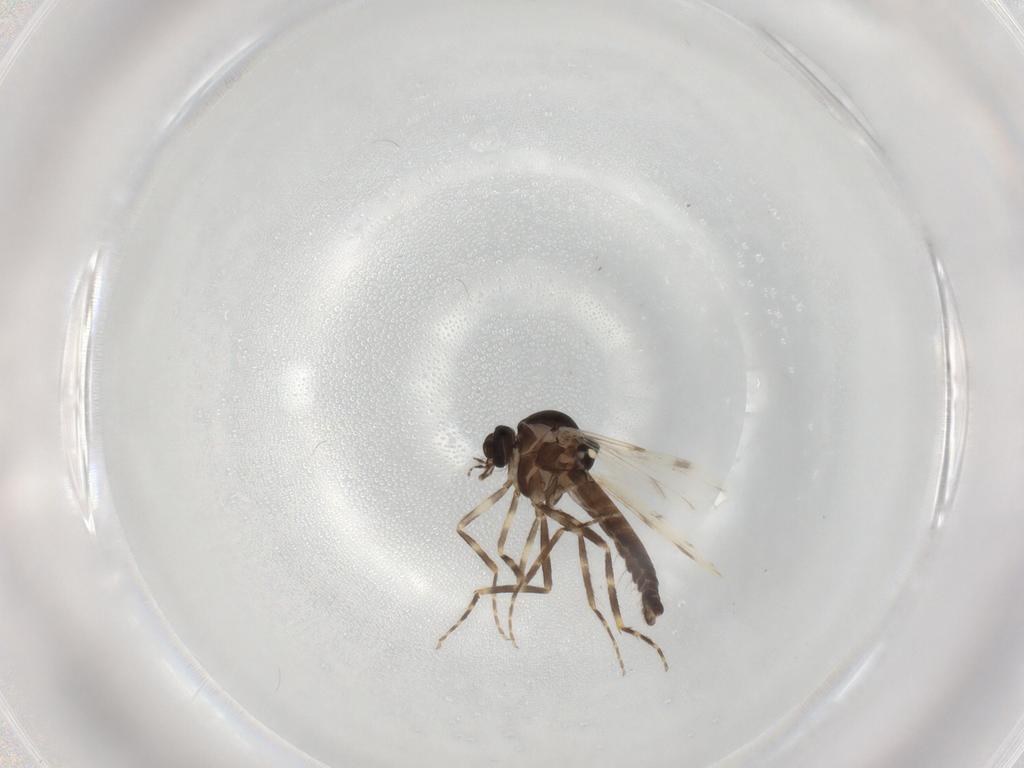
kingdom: Animalia
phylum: Arthropoda
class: Insecta
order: Diptera
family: Ceratopogonidae
